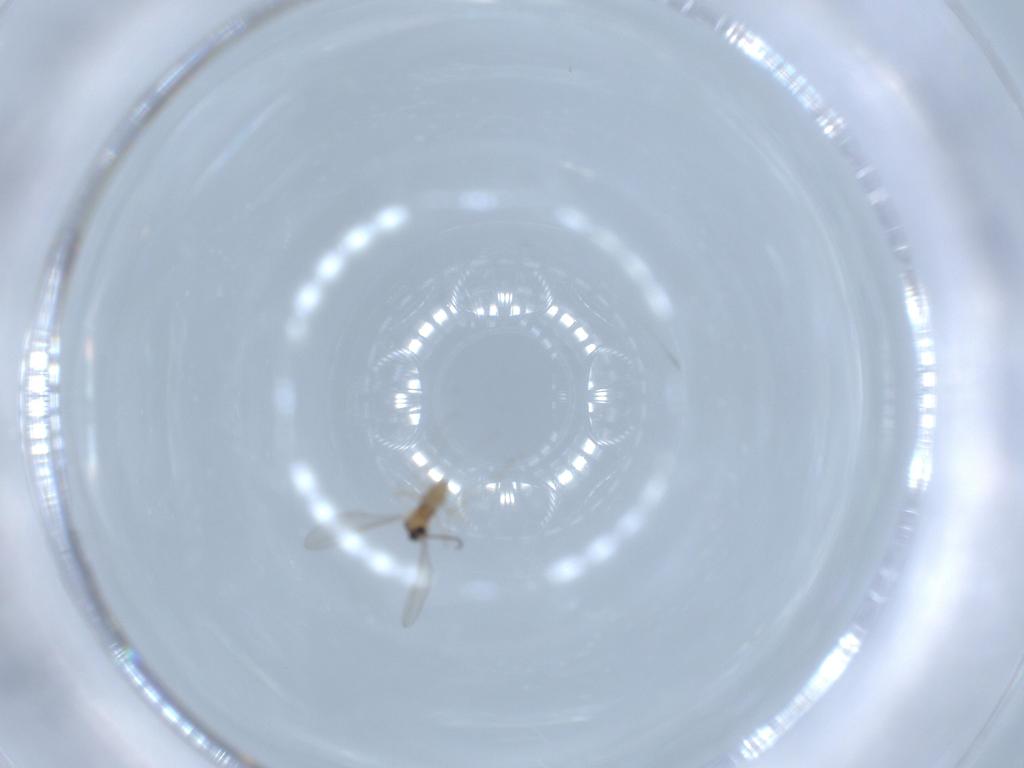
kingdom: Animalia
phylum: Arthropoda
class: Insecta
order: Diptera
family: Cecidomyiidae
